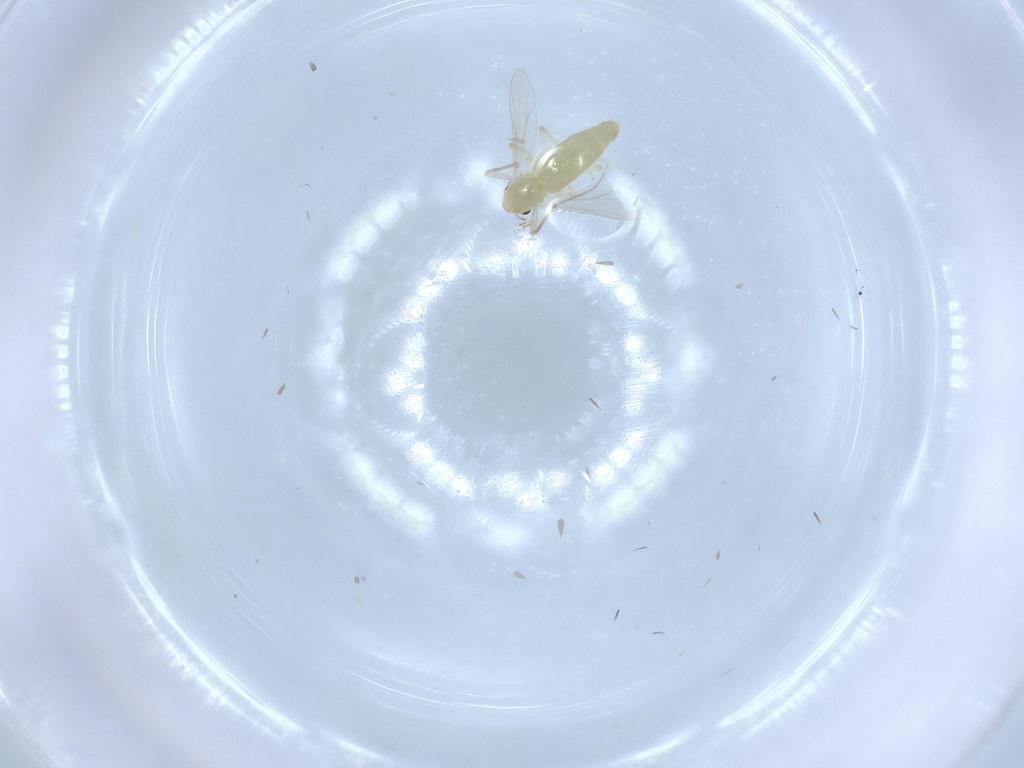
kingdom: Animalia
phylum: Arthropoda
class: Insecta
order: Diptera
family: Chironomidae
